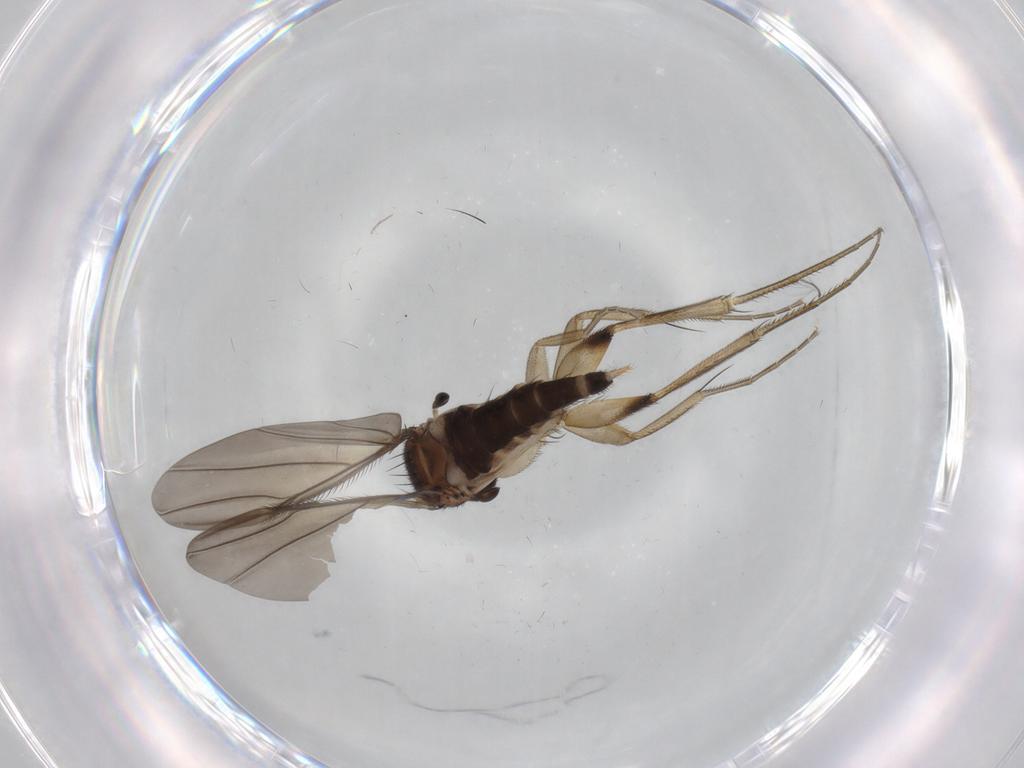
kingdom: Animalia
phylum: Arthropoda
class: Insecta
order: Diptera
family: Phoridae
